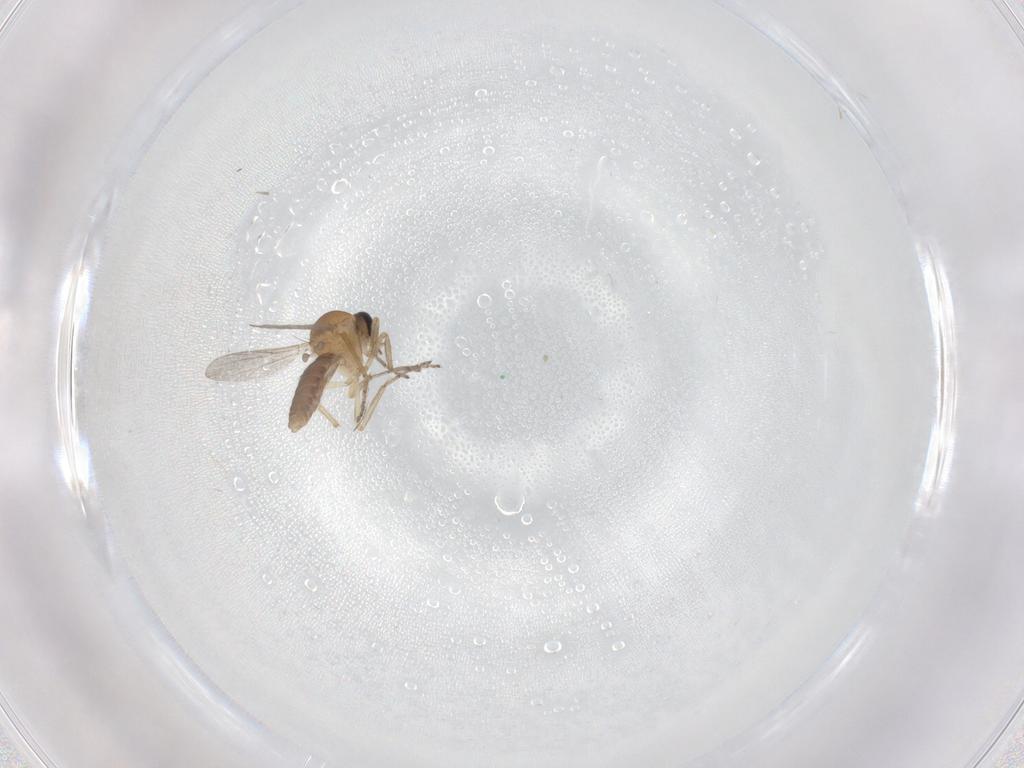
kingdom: Animalia
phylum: Arthropoda
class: Insecta
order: Diptera
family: Ceratopogonidae
